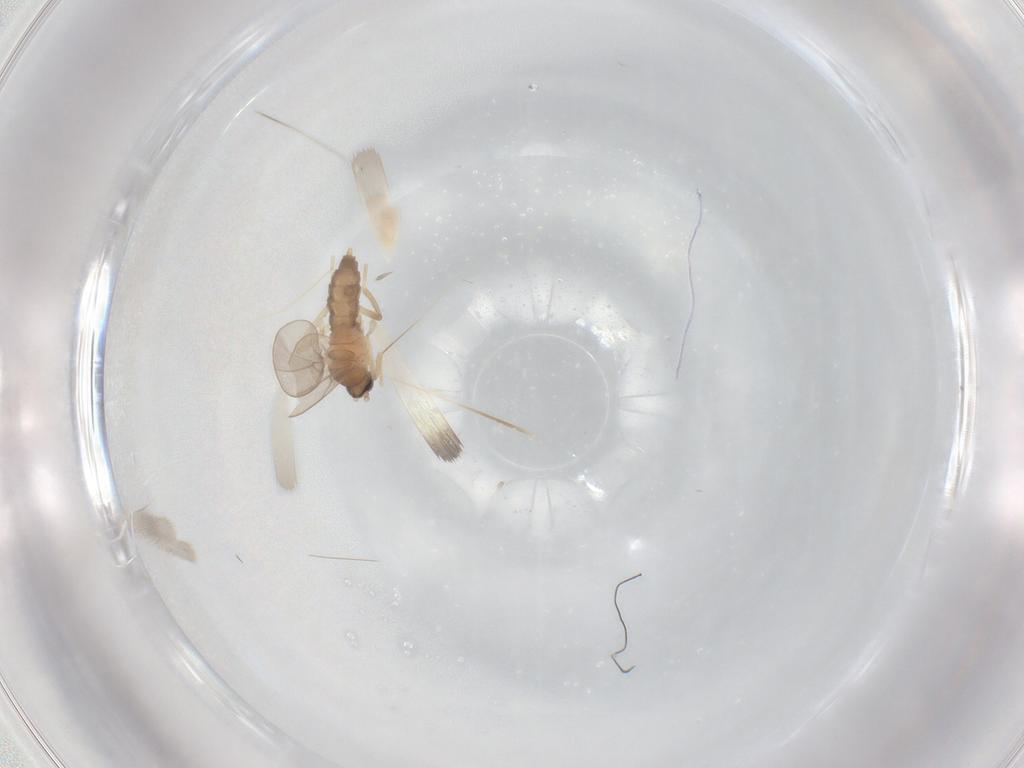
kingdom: Animalia
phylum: Arthropoda
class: Insecta
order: Diptera
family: Cecidomyiidae
